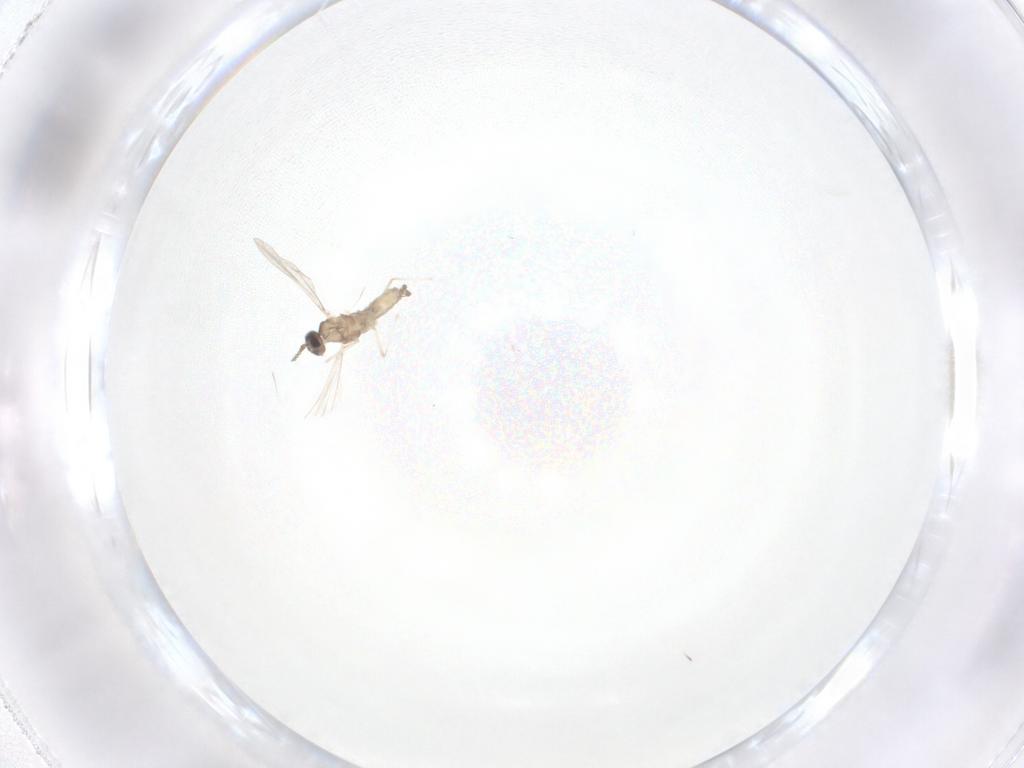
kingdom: Animalia
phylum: Arthropoda
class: Insecta
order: Diptera
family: Cecidomyiidae
